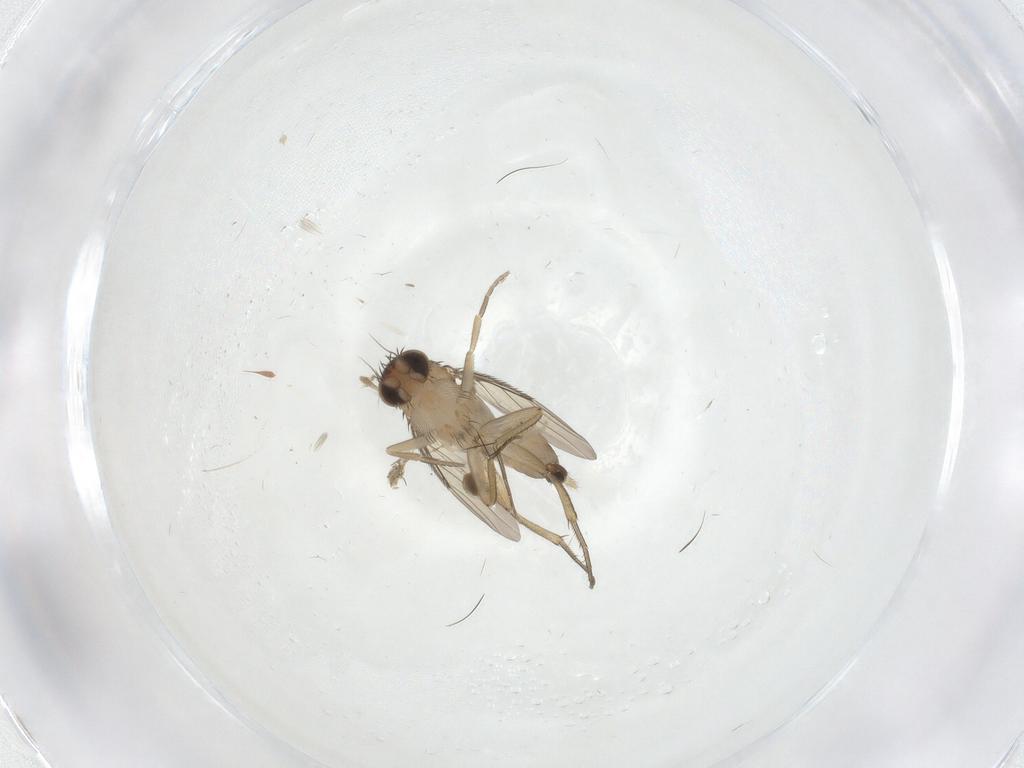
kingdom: Animalia
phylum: Arthropoda
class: Insecta
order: Diptera
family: Phoridae
